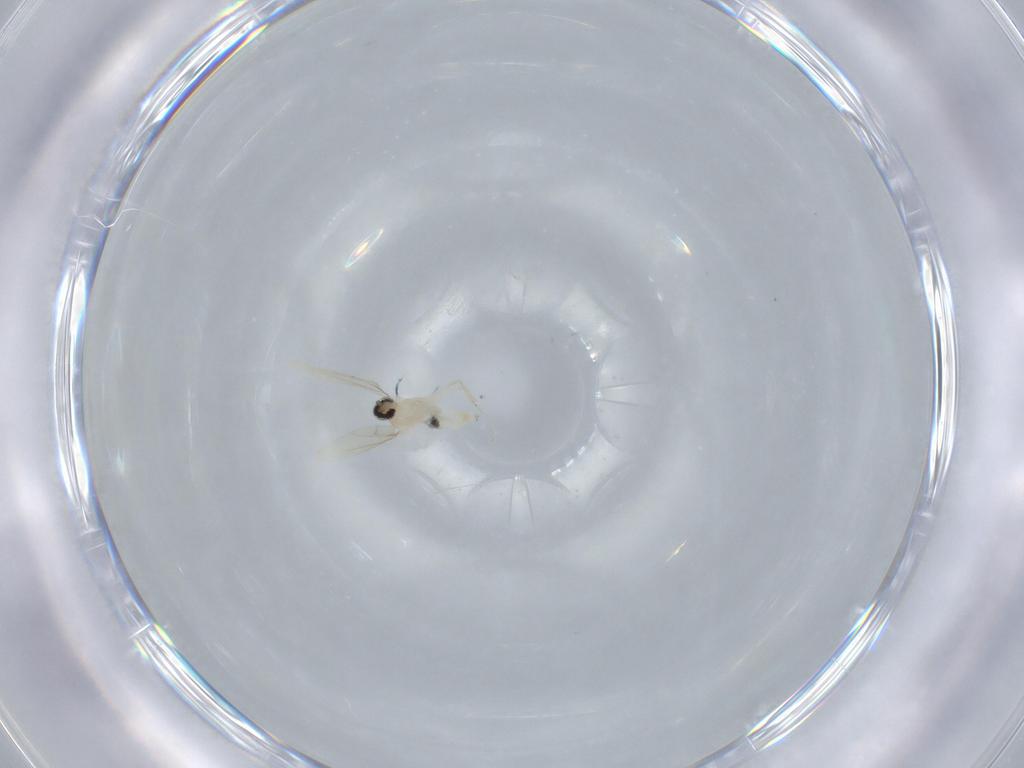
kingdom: Animalia
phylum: Arthropoda
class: Insecta
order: Diptera
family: Cecidomyiidae
